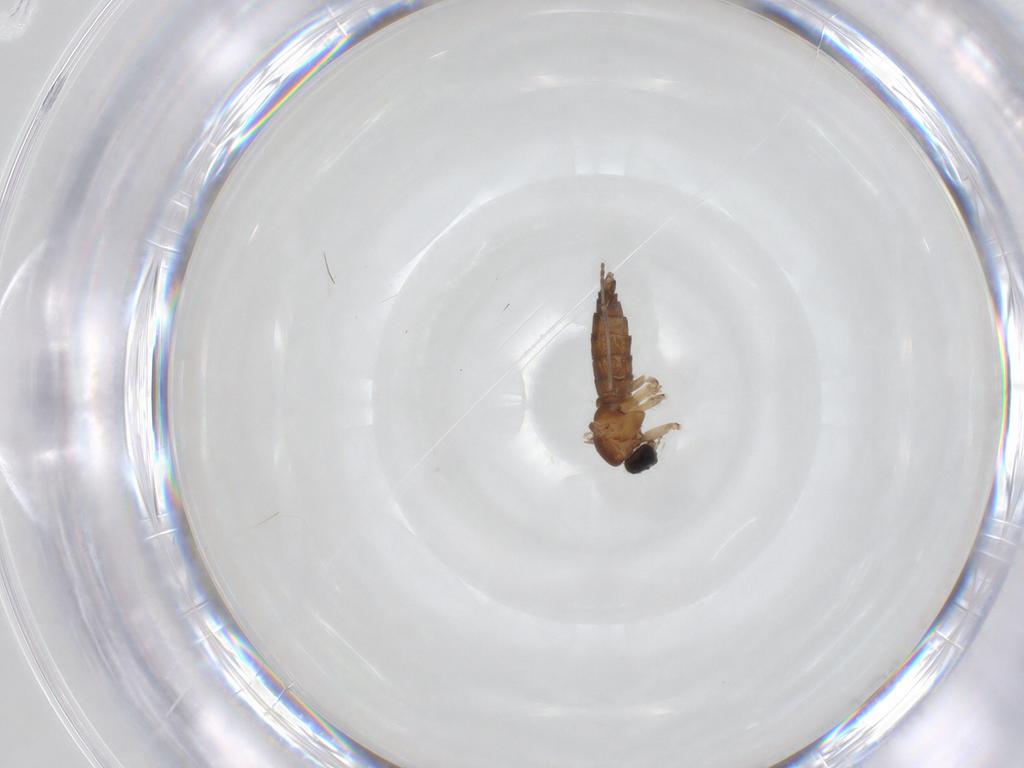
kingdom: Animalia
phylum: Arthropoda
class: Insecta
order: Diptera
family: Sciaridae
